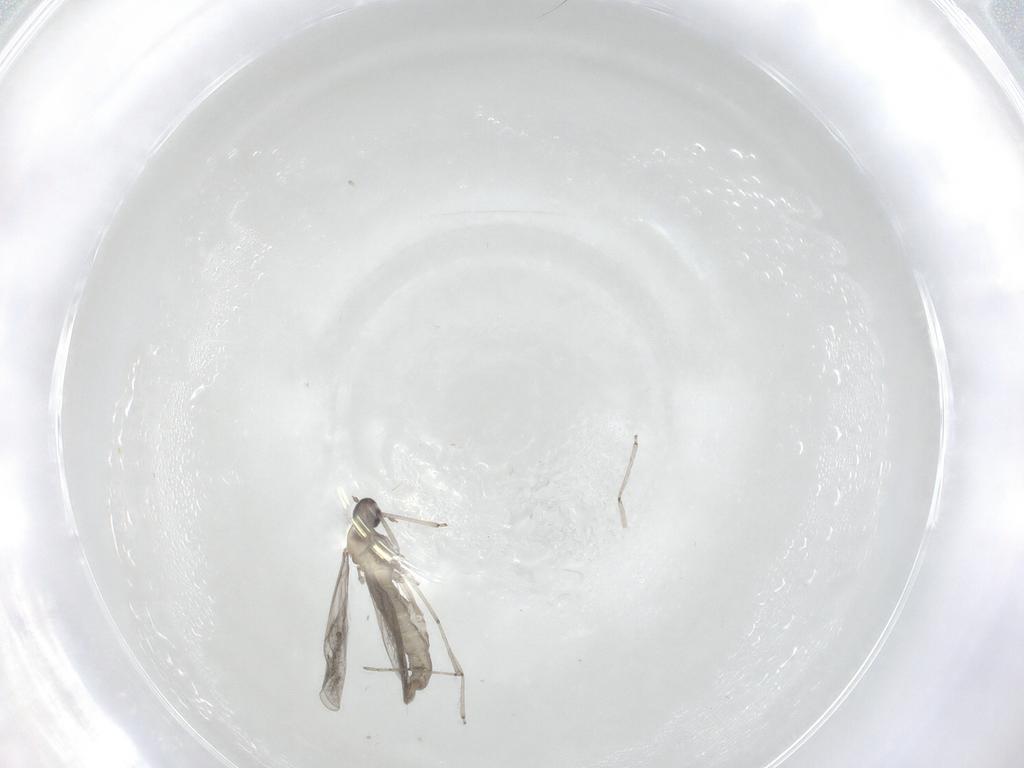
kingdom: Animalia
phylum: Arthropoda
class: Insecta
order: Diptera
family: Cecidomyiidae
